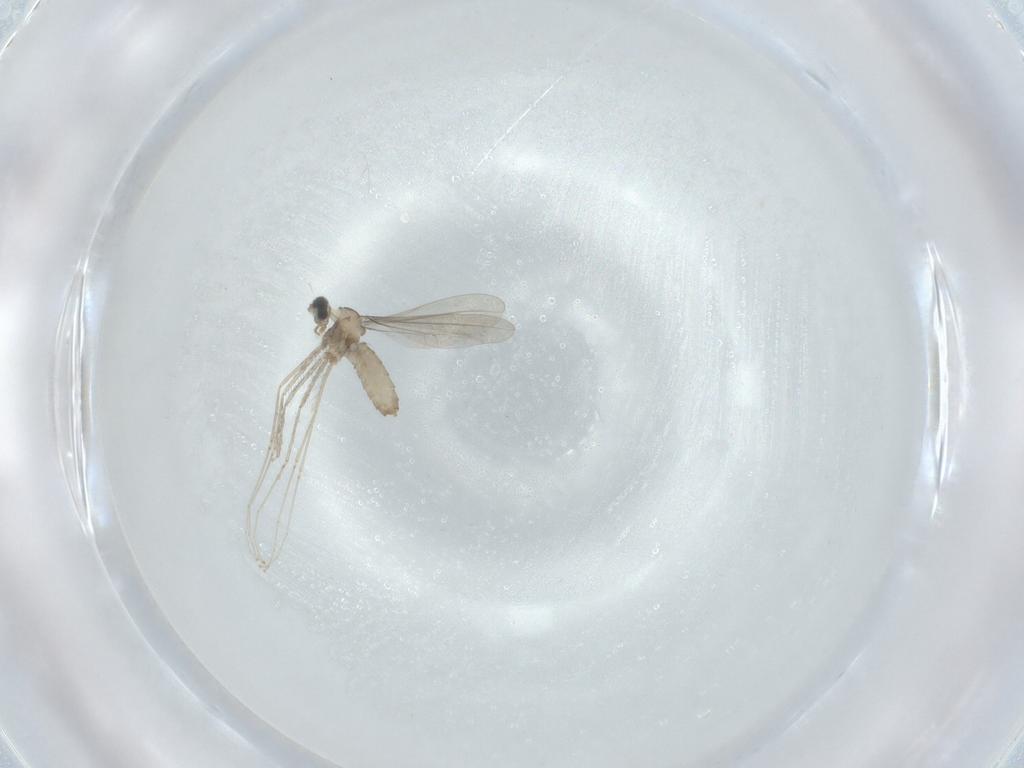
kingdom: Animalia
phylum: Arthropoda
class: Insecta
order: Diptera
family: Cecidomyiidae
